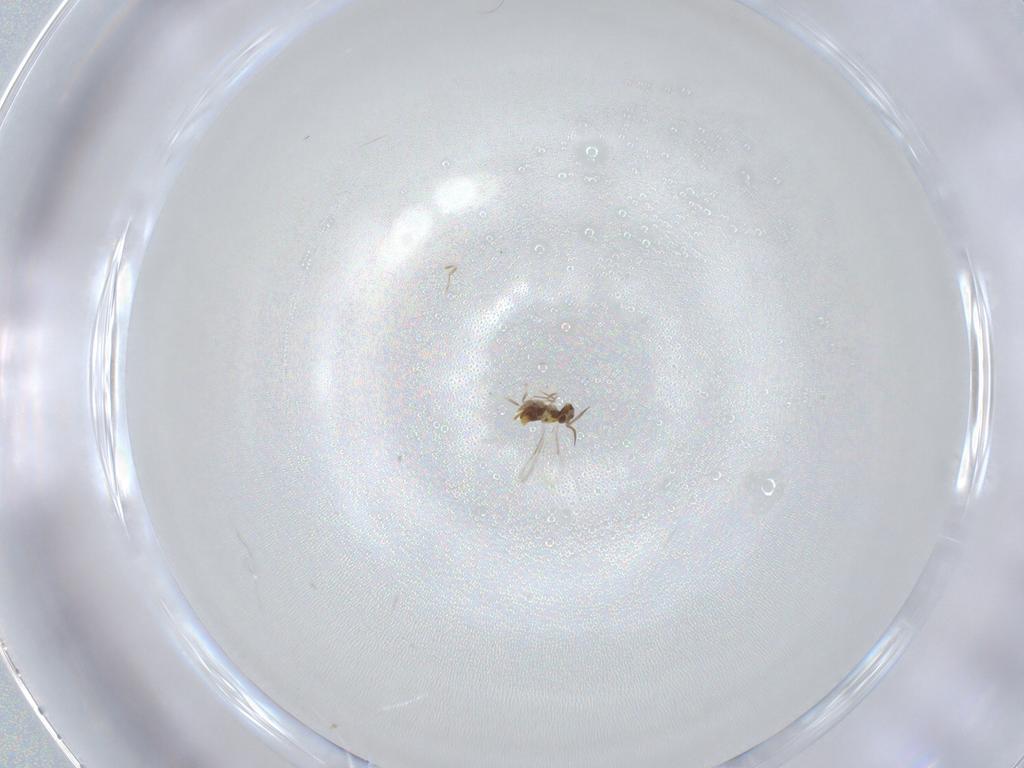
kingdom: Animalia
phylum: Arthropoda
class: Insecta
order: Hymenoptera
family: Aphelinidae
